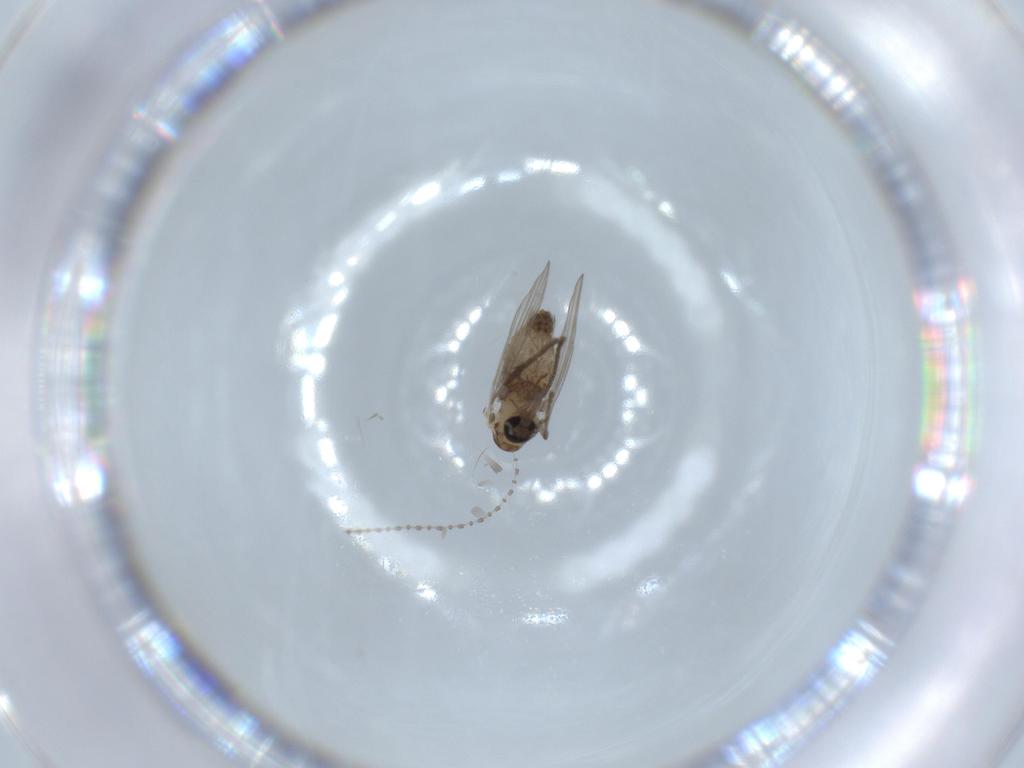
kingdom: Animalia
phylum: Arthropoda
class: Insecta
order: Diptera
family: Psychodidae
